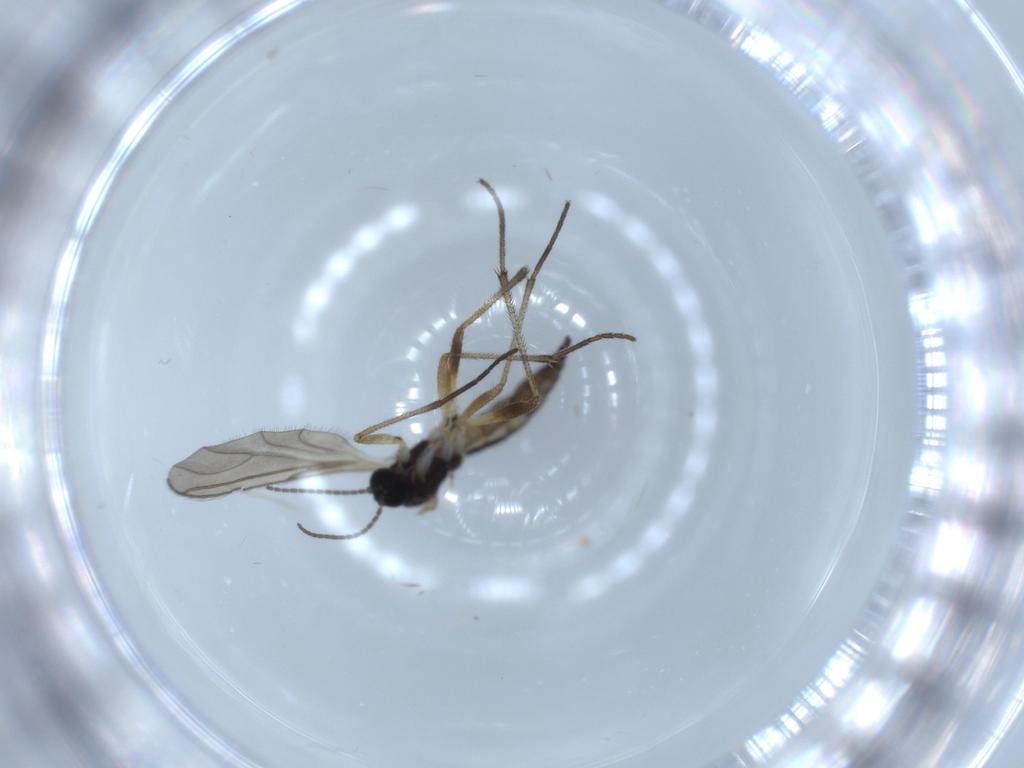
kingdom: Animalia
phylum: Arthropoda
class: Insecta
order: Diptera
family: Sciaridae
